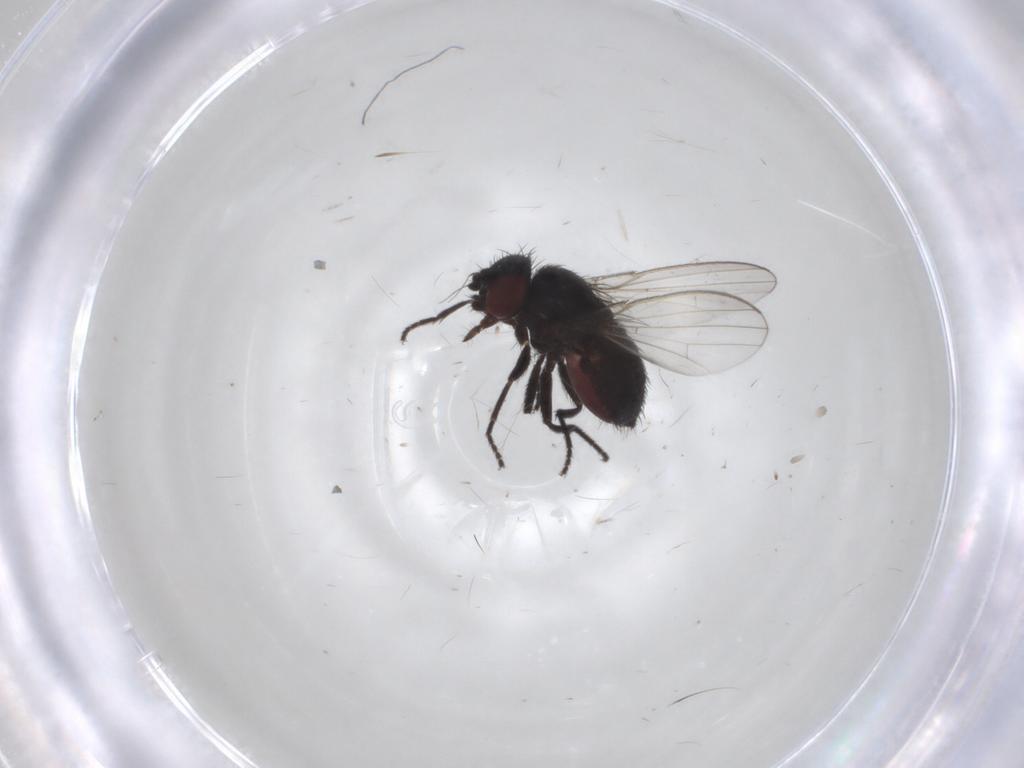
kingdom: Animalia
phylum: Arthropoda
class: Insecta
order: Diptera
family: Milichiidae
